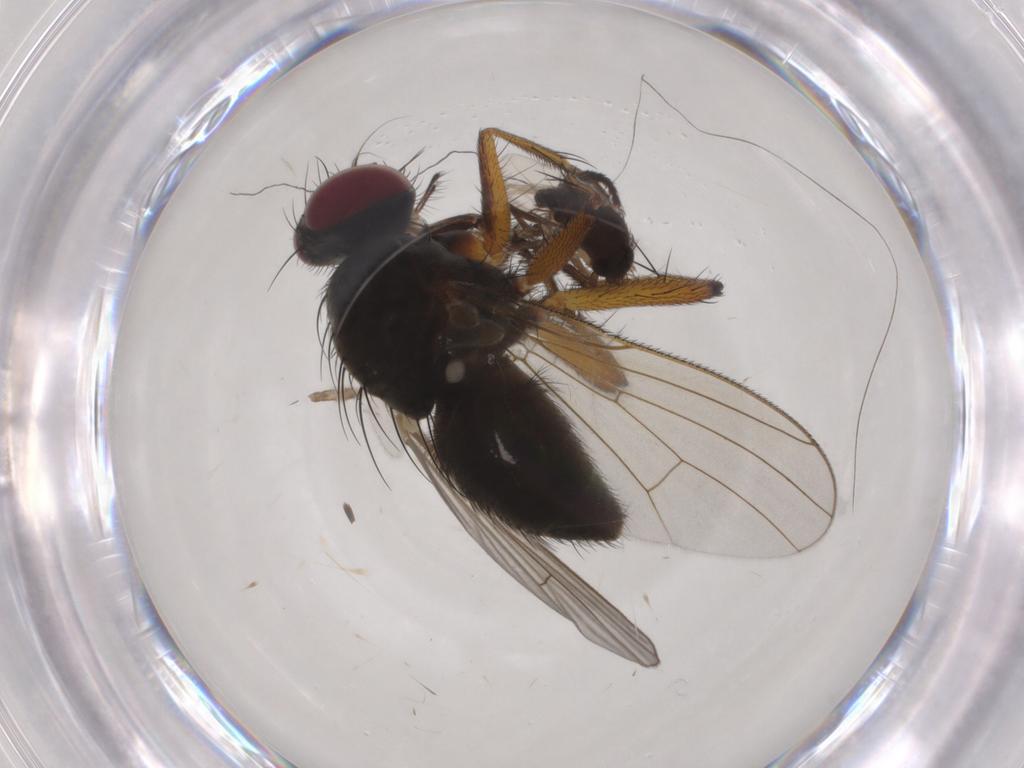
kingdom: Animalia
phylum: Arthropoda
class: Insecta
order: Diptera
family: Muscidae
